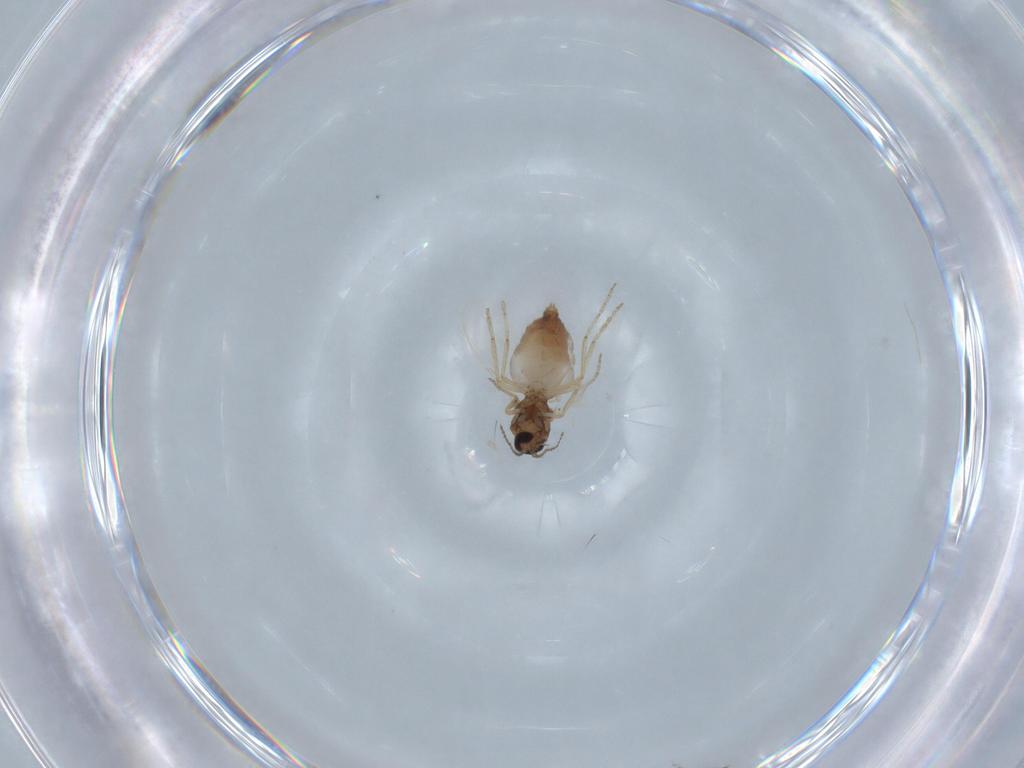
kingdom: Animalia
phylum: Arthropoda
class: Insecta
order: Diptera
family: Ceratopogonidae
